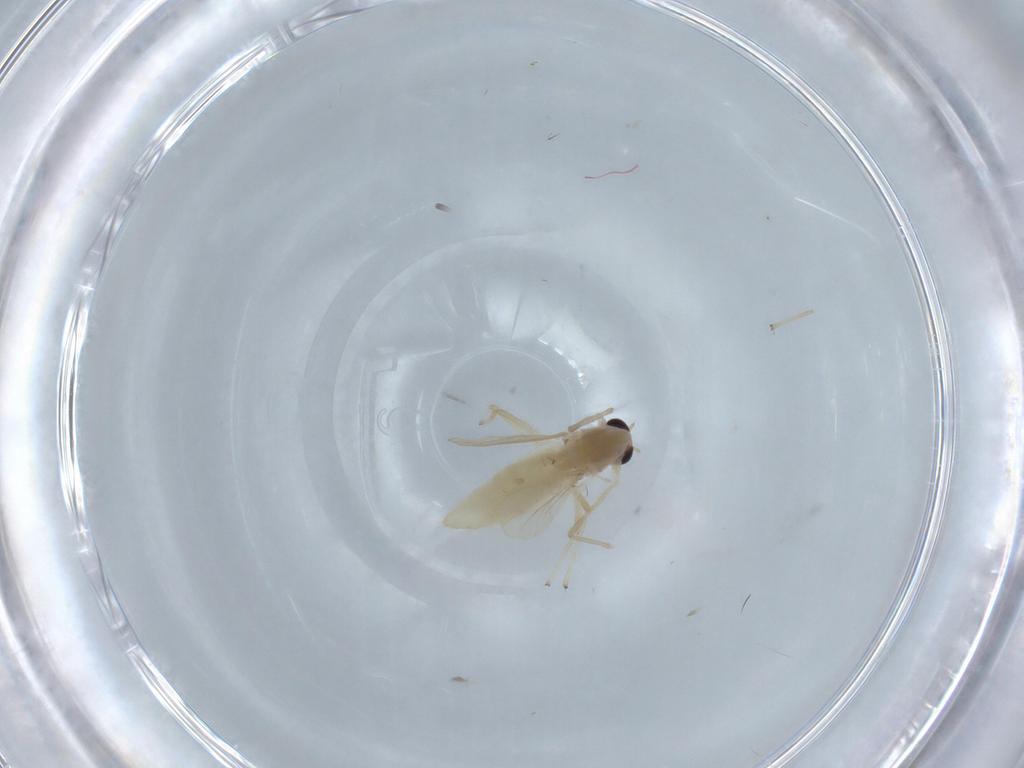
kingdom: Animalia
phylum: Arthropoda
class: Insecta
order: Diptera
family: Chironomidae
